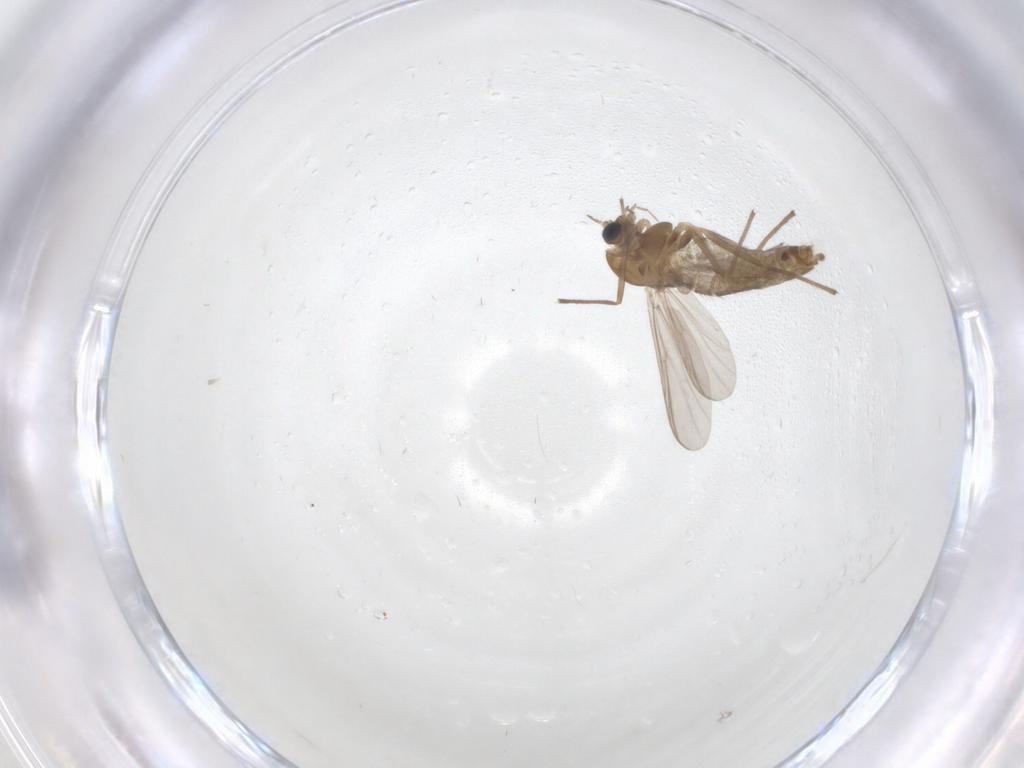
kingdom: Animalia
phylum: Arthropoda
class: Insecta
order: Diptera
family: Chironomidae
